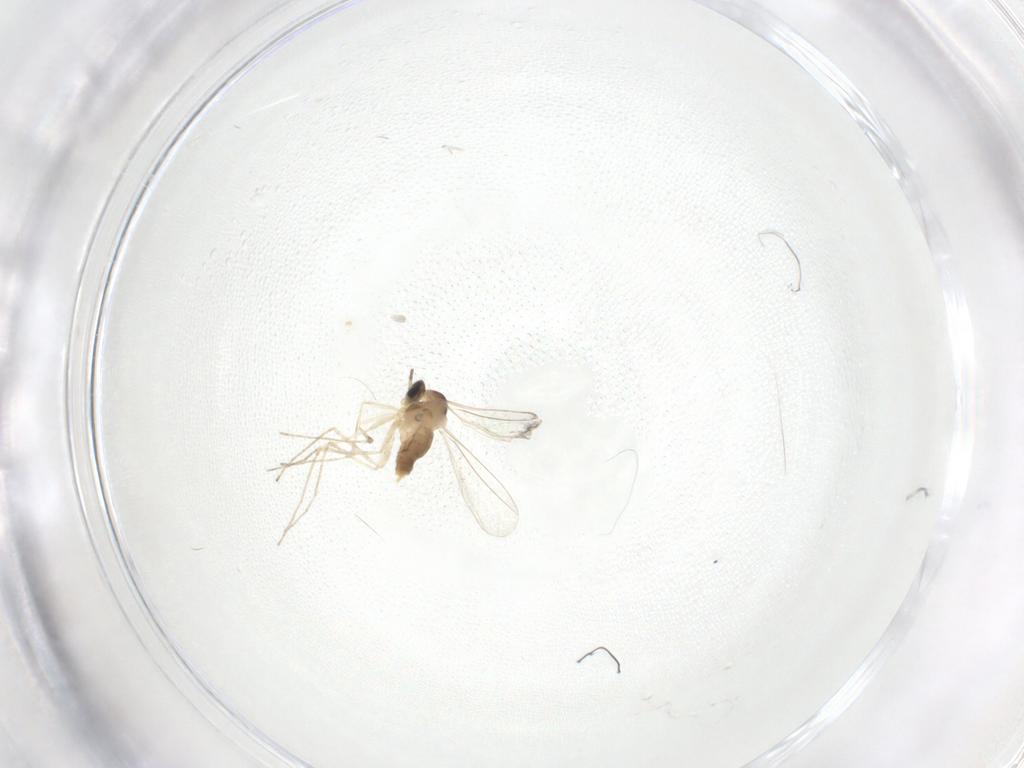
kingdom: Animalia
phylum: Arthropoda
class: Insecta
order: Diptera
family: Cecidomyiidae
